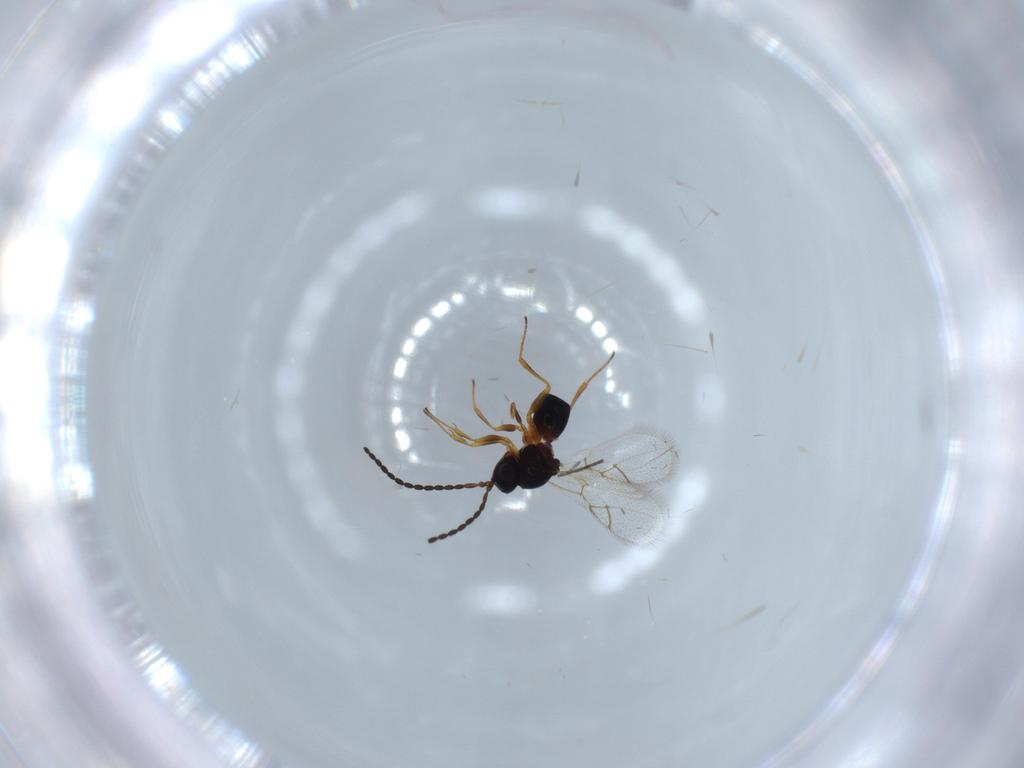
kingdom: Animalia
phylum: Arthropoda
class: Insecta
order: Hymenoptera
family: Figitidae
